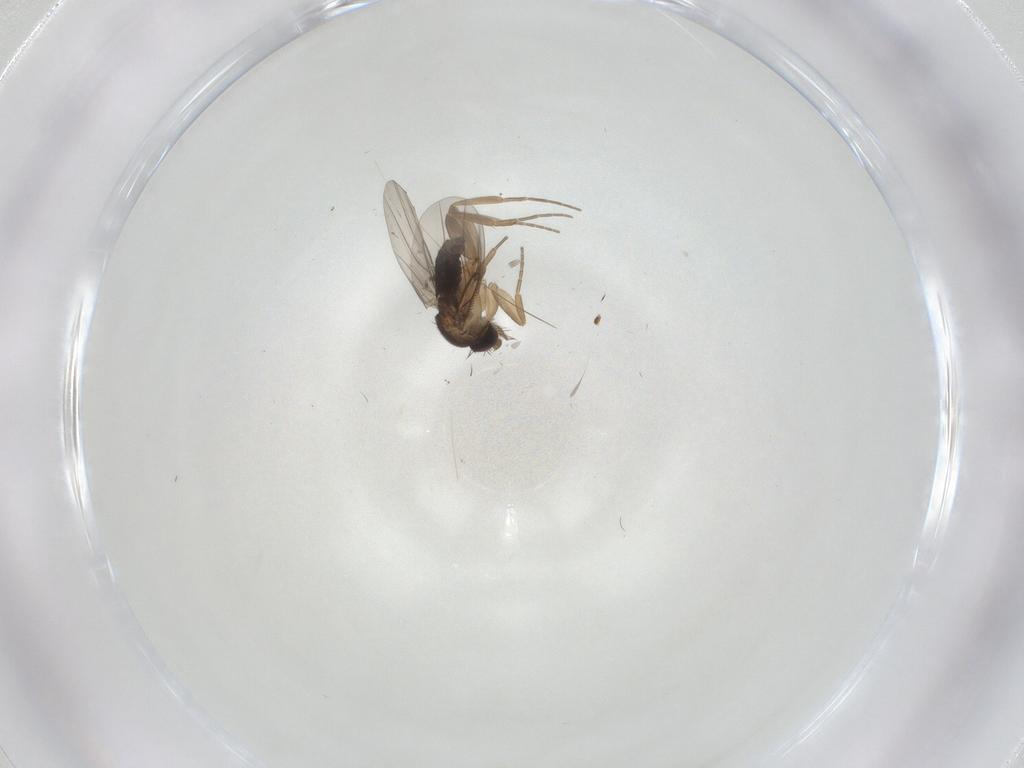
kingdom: Animalia
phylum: Arthropoda
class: Insecta
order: Diptera
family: Ceratopogonidae
